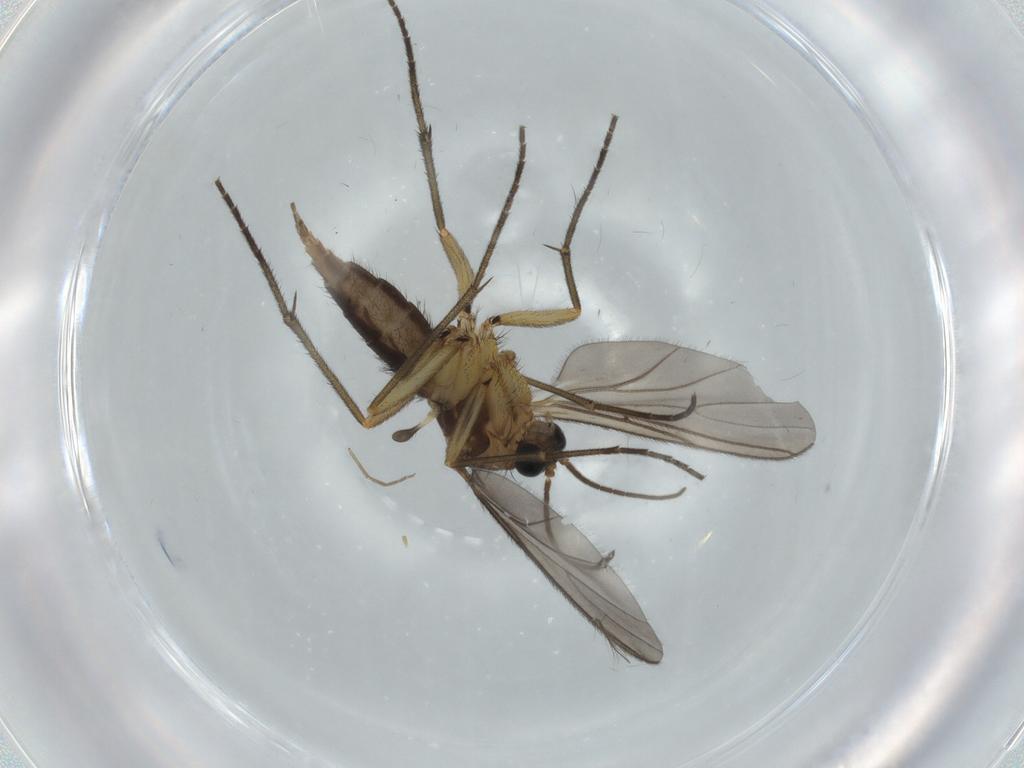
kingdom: Animalia
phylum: Arthropoda
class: Insecta
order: Diptera
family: Sciaridae
